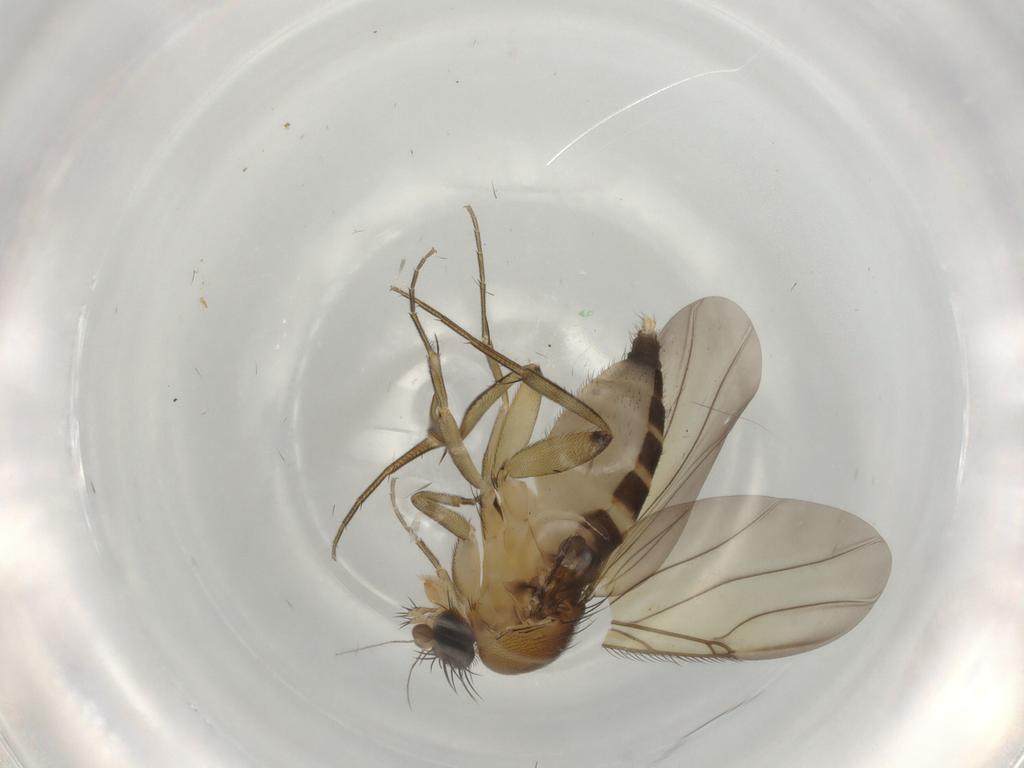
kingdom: Animalia
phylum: Arthropoda
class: Insecta
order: Diptera
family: Phoridae
